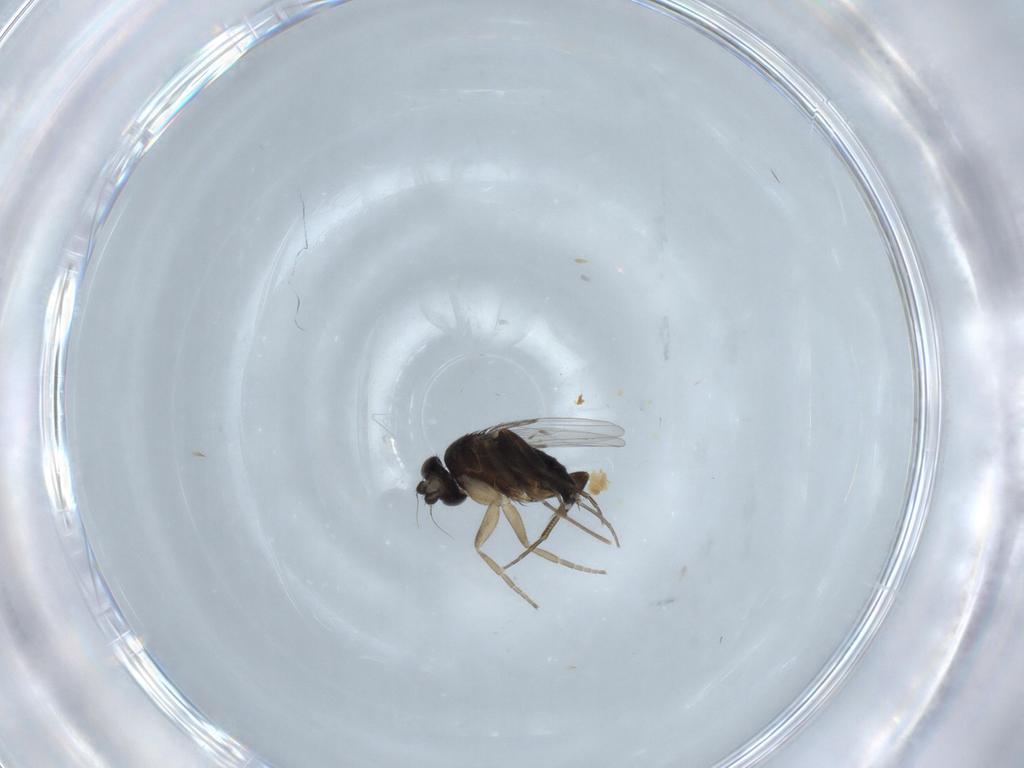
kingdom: Animalia
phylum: Arthropoda
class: Insecta
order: Diptera
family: Phoridae
